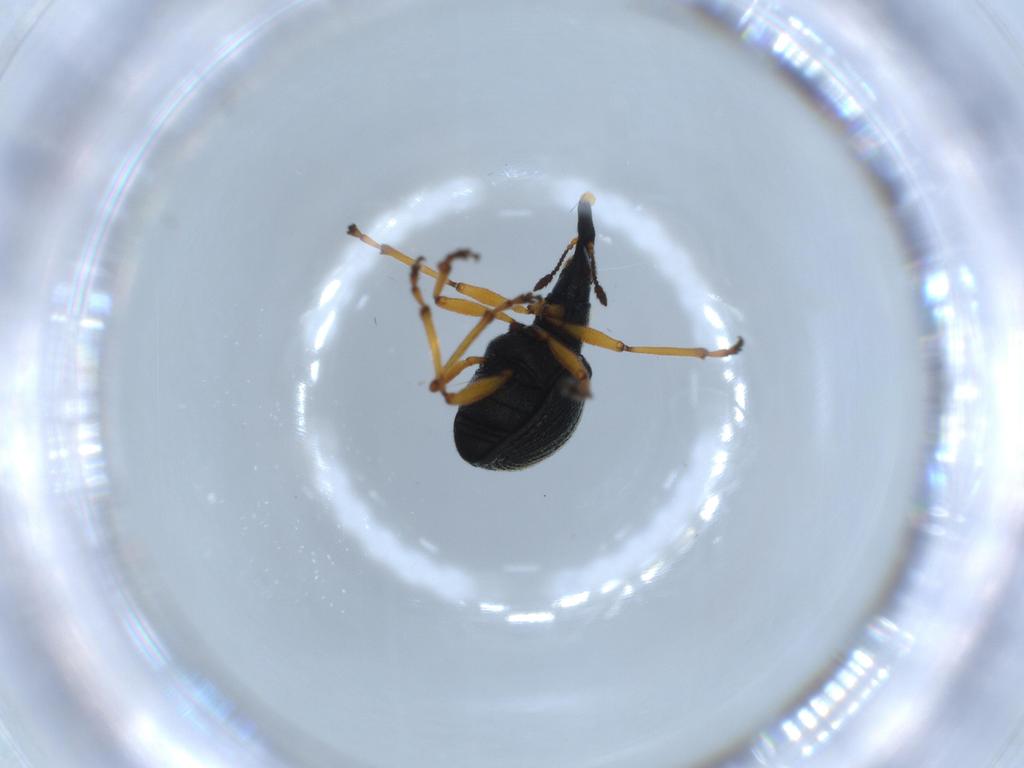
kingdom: Animalia
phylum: Arthropoda
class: Insecta
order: Coleoptera
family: Brentidae
